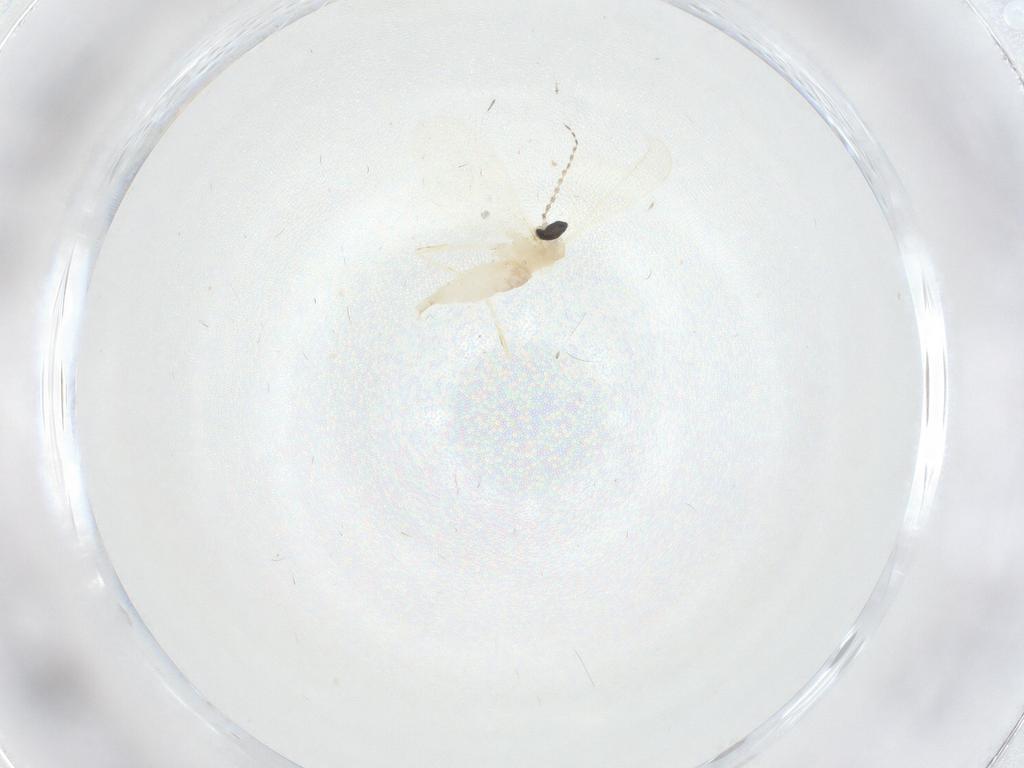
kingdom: Animalia
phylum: Arthropoda
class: Insecta
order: Diptera
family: Cecidomyiidae
